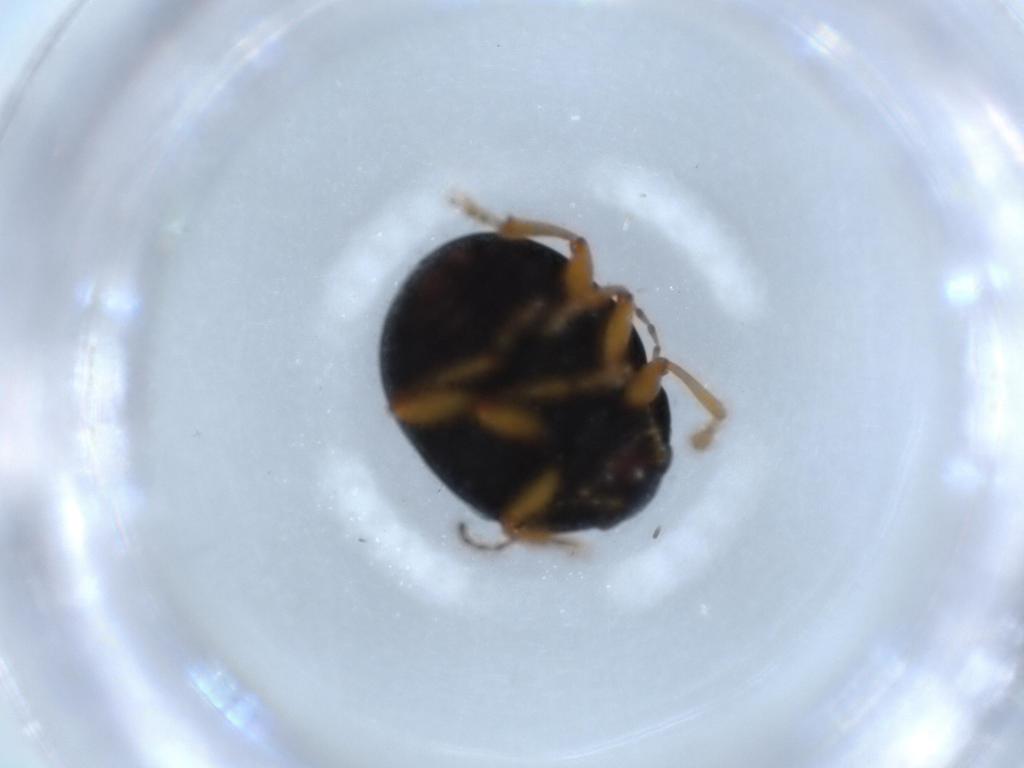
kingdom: Animalia
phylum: Arthropoda
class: Insecta
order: Coleoptera
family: Chrysomelidae
